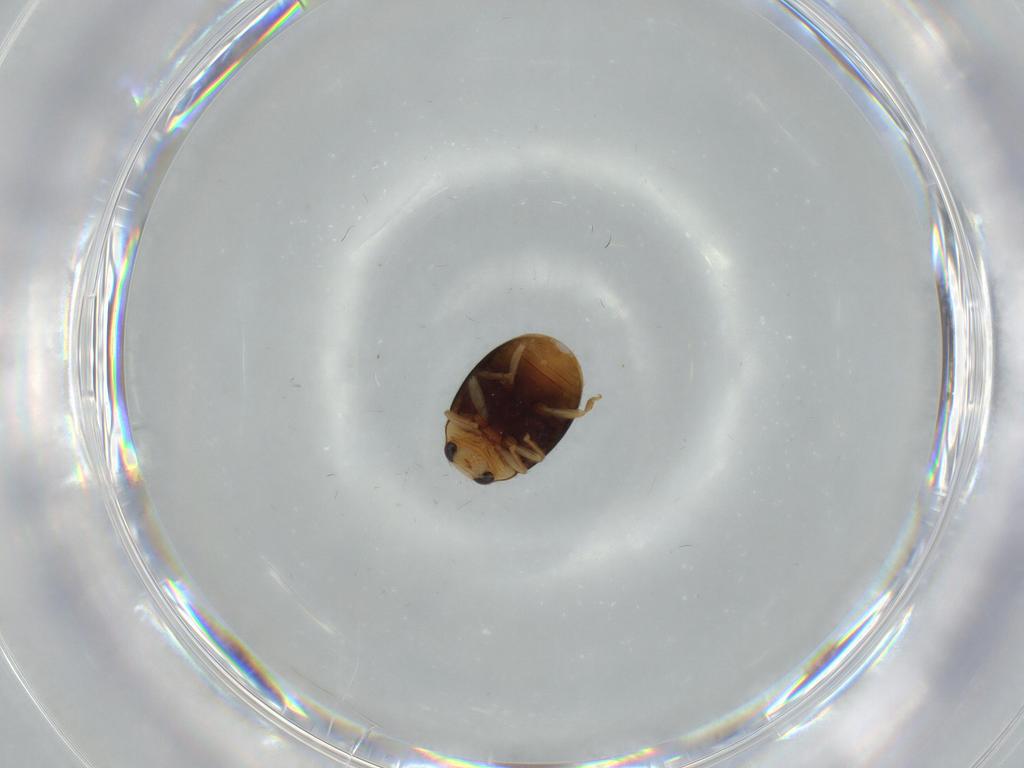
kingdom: Animalia
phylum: Arthropoda
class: Insecta
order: Coleoptera
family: Coccinellidae
